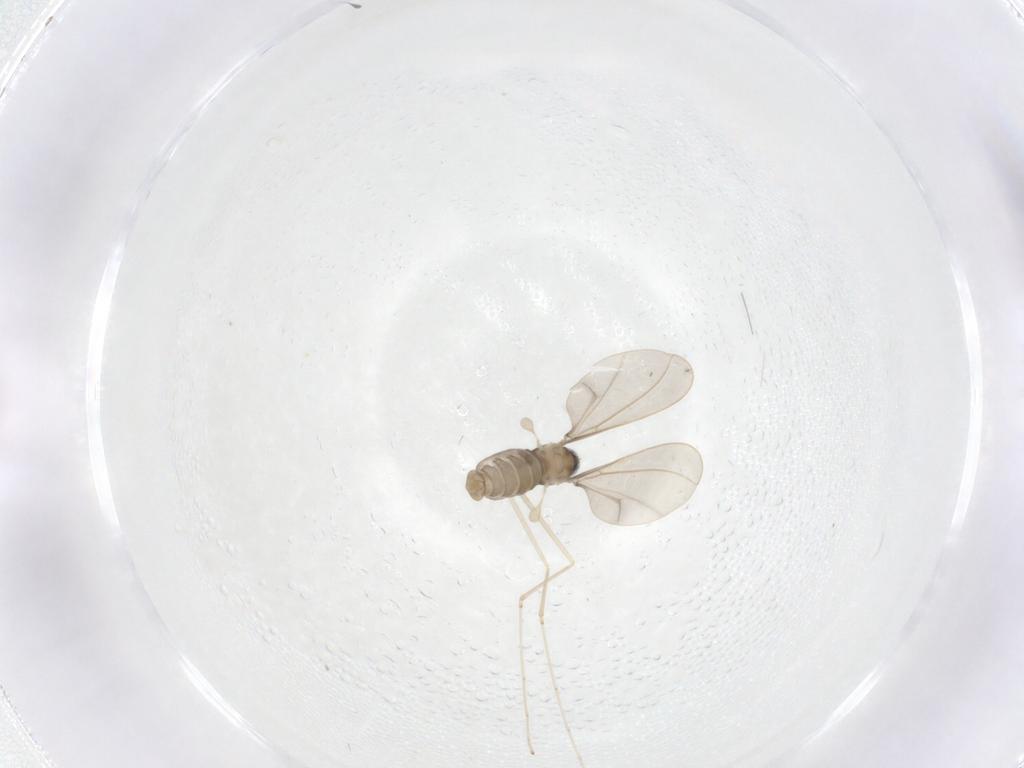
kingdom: Animalia
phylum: Arthropoda
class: Insecta
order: Diptera
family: Cecidomyiidae
